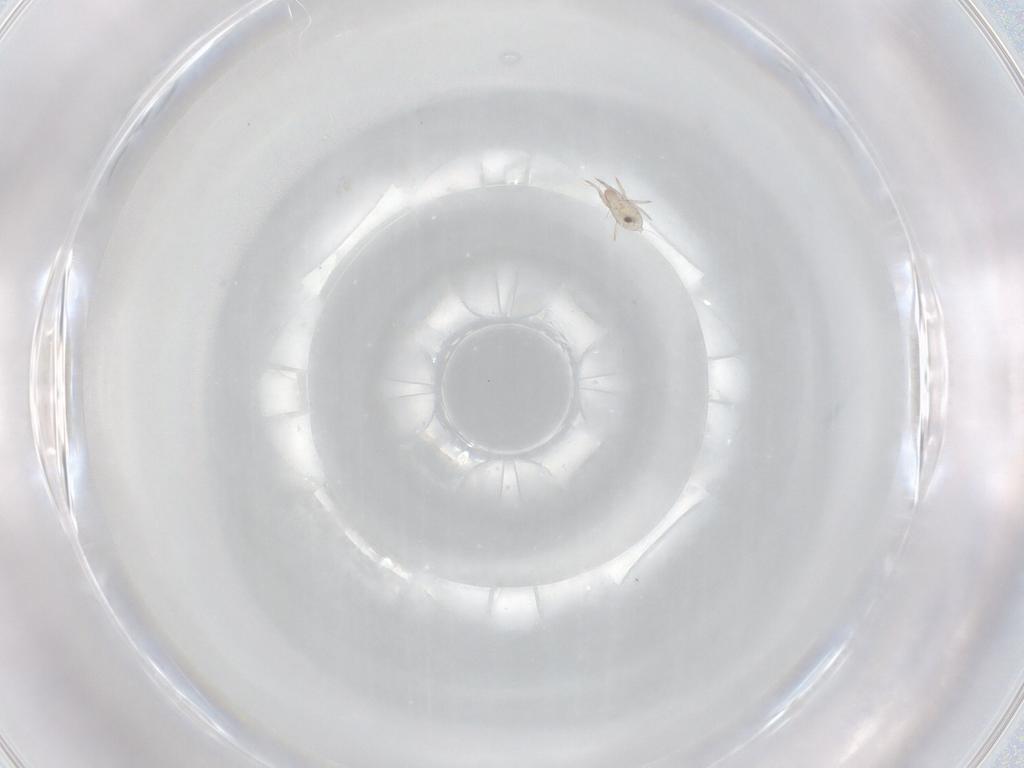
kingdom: Animalia
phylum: Arthropoda
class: Arachnida
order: Sarcoptiformes
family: Ceratoppiidae
